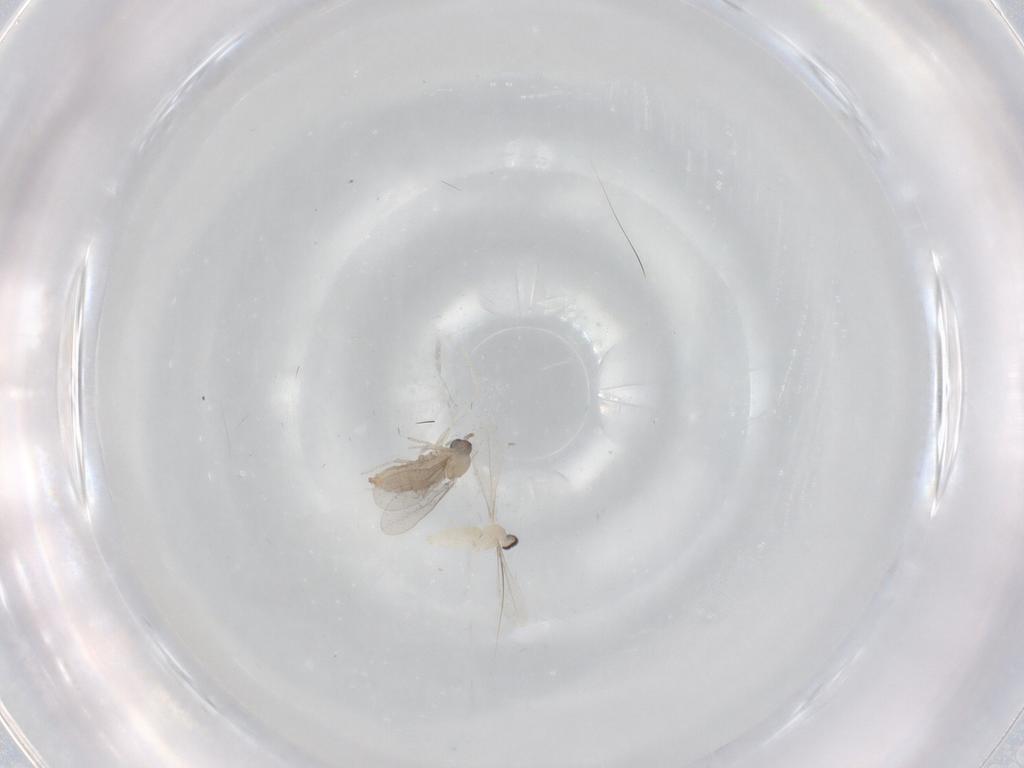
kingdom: Animalia
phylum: Arthropoda
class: Insecta
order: Diptera
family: Cecidomyiidae
